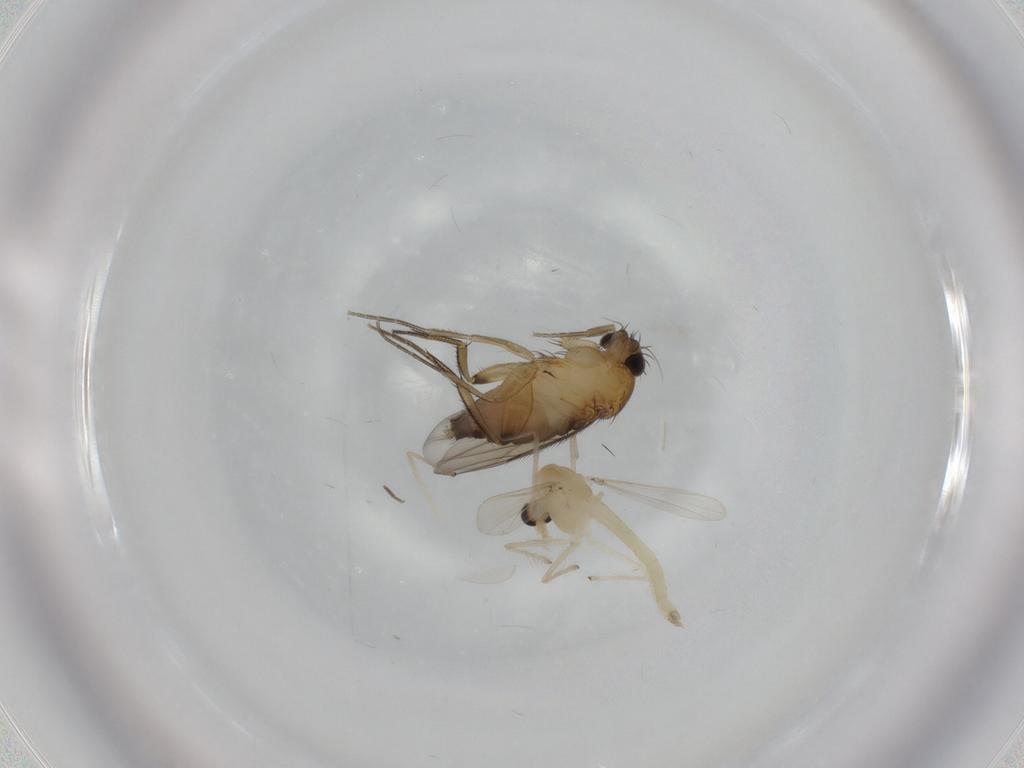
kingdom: Animalia
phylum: Arthropoda
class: Insecta
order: Diptera
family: Chironomidae
